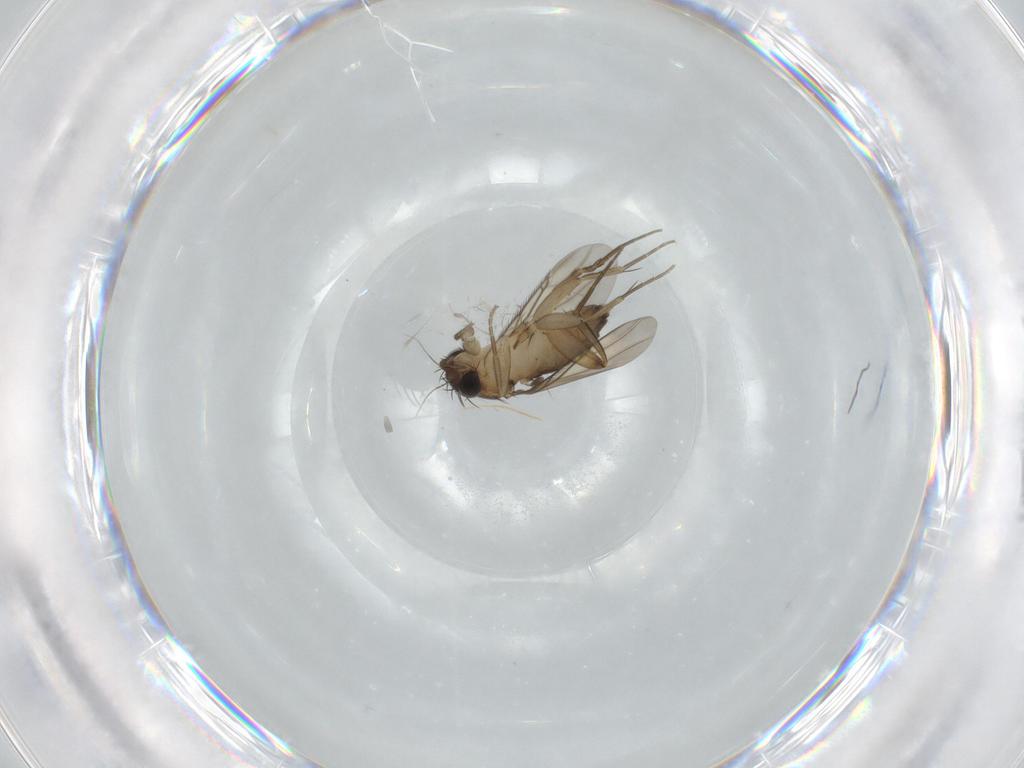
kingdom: Animalia
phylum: Arthropoda
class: Insecta
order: Diptera
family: Phoridae
